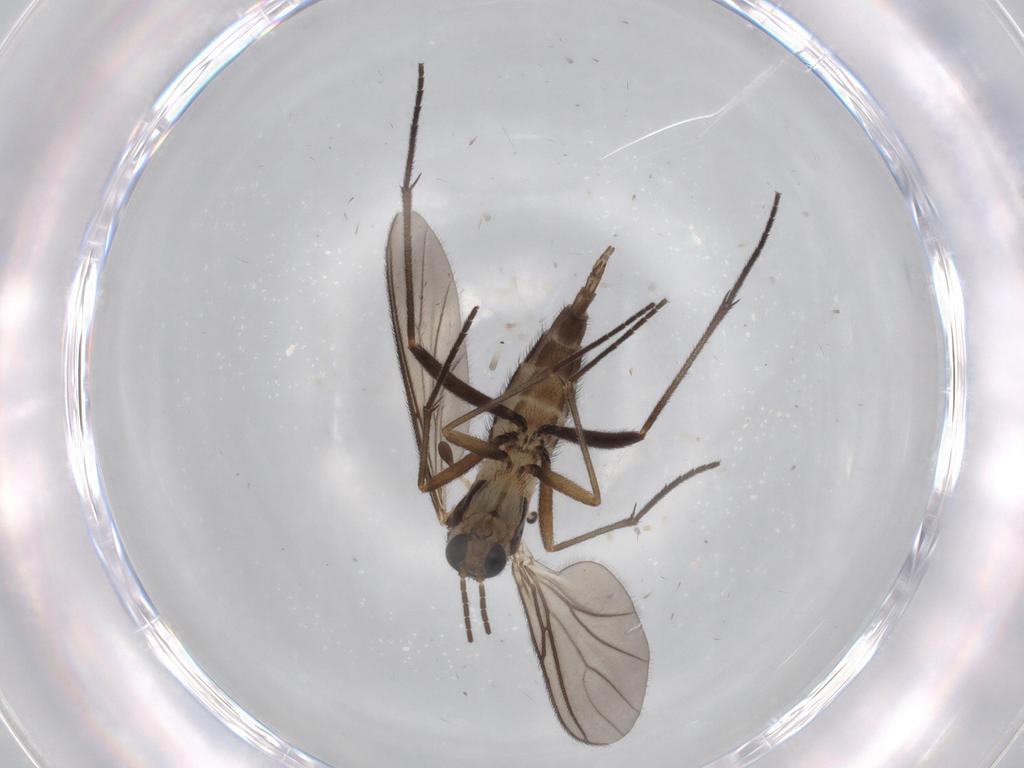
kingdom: Animalia
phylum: Arthropoda
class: Insecta
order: Diptera
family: Sciaridae
